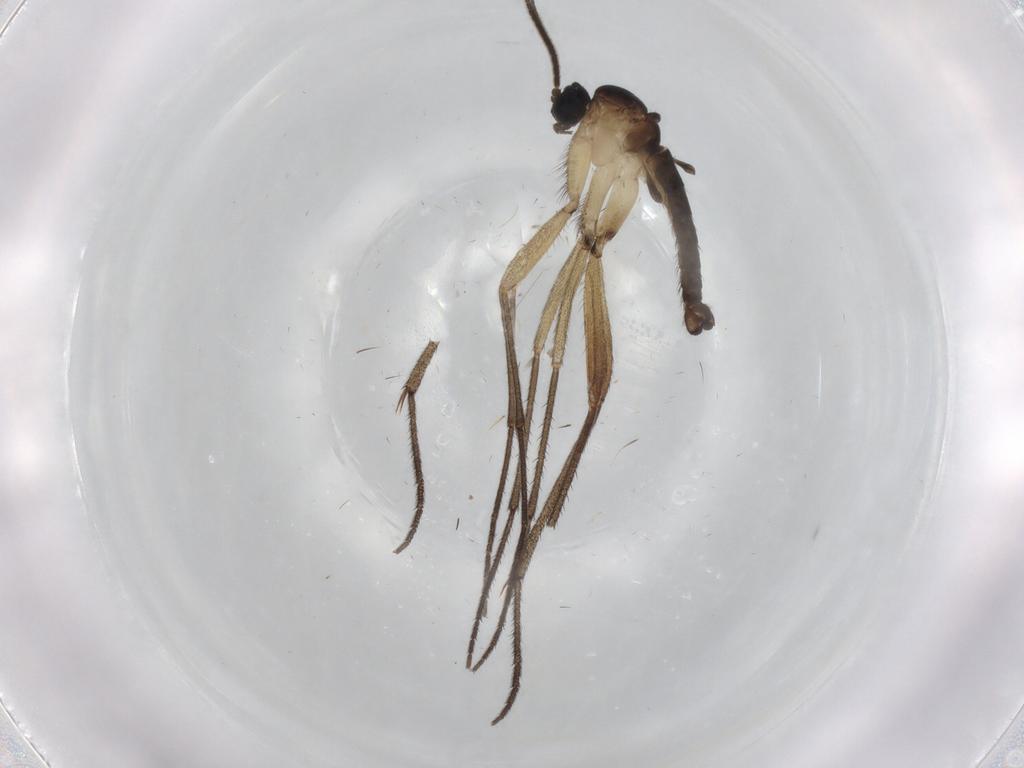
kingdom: Animalia
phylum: Arthropoda
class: Insecta
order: Diptera
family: Sciaridae
